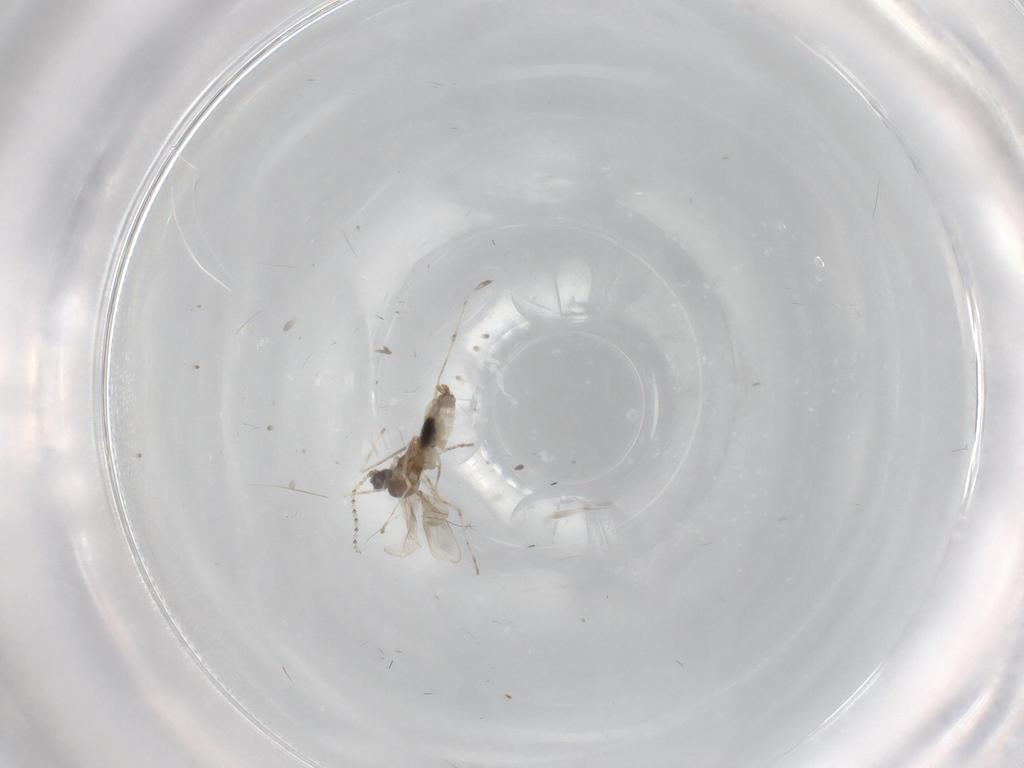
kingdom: Animalia
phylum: Arthropoda
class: Insecta
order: Diptera
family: Cecidomyiidae
